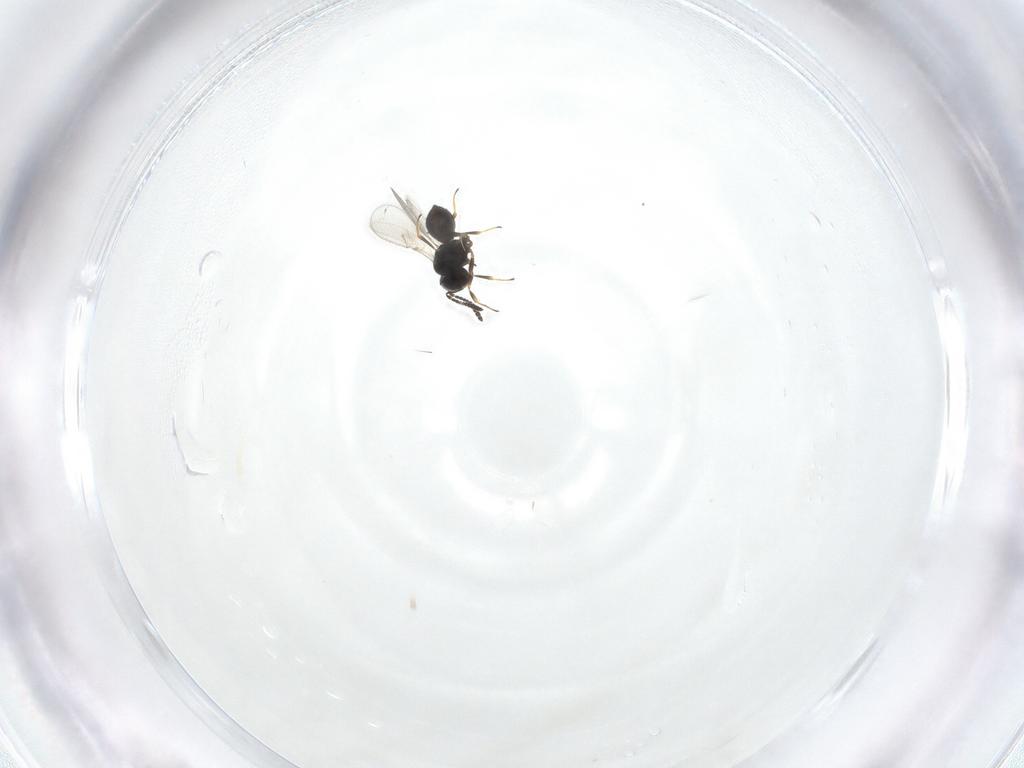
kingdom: Animalia
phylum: Arthropoda
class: Insecta
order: Hymenoptera
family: Scelionidae
